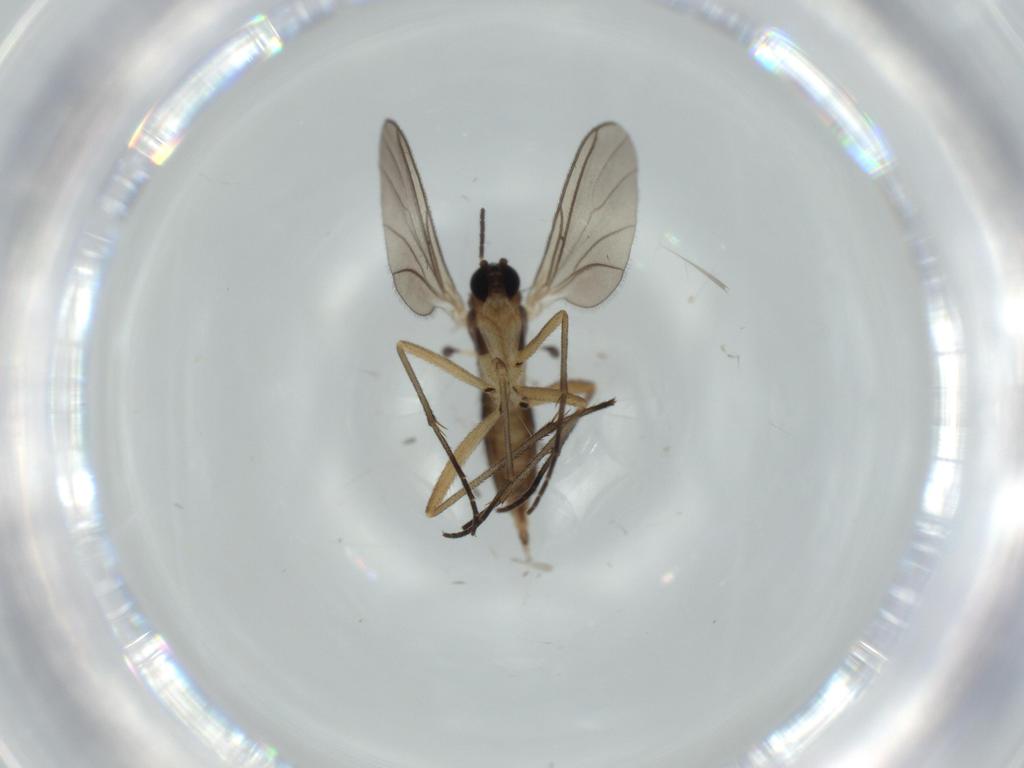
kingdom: Animalia
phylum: Arthropoda
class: Insecta
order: Diptera
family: Sciaridae
